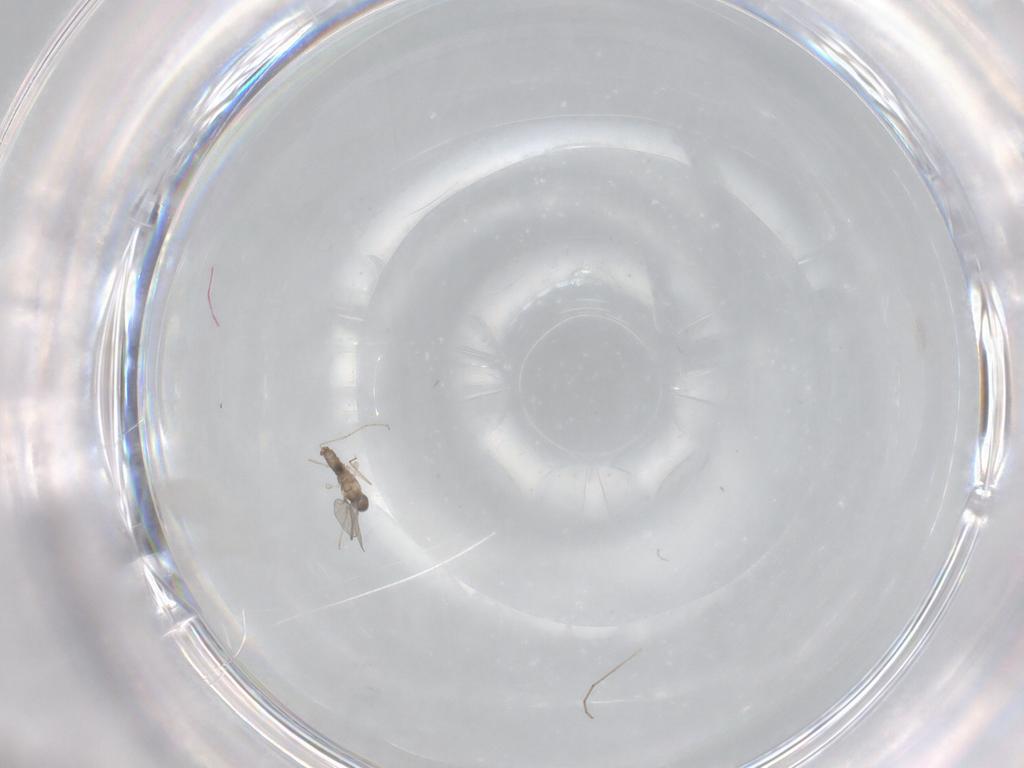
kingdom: Animalia
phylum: Arthropoda
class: Insecta
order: Diptera
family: Cecidomyiidae
